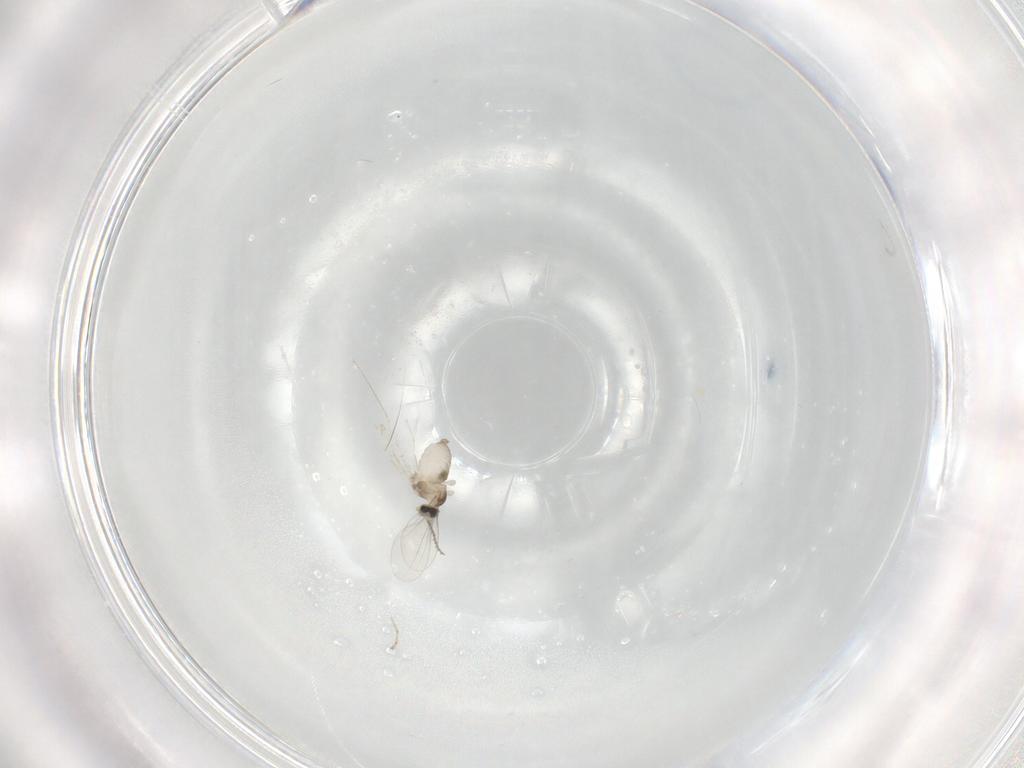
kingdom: Animalia
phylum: Arthropoda
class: Insecta
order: Diptera
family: Cecidomyiidae
